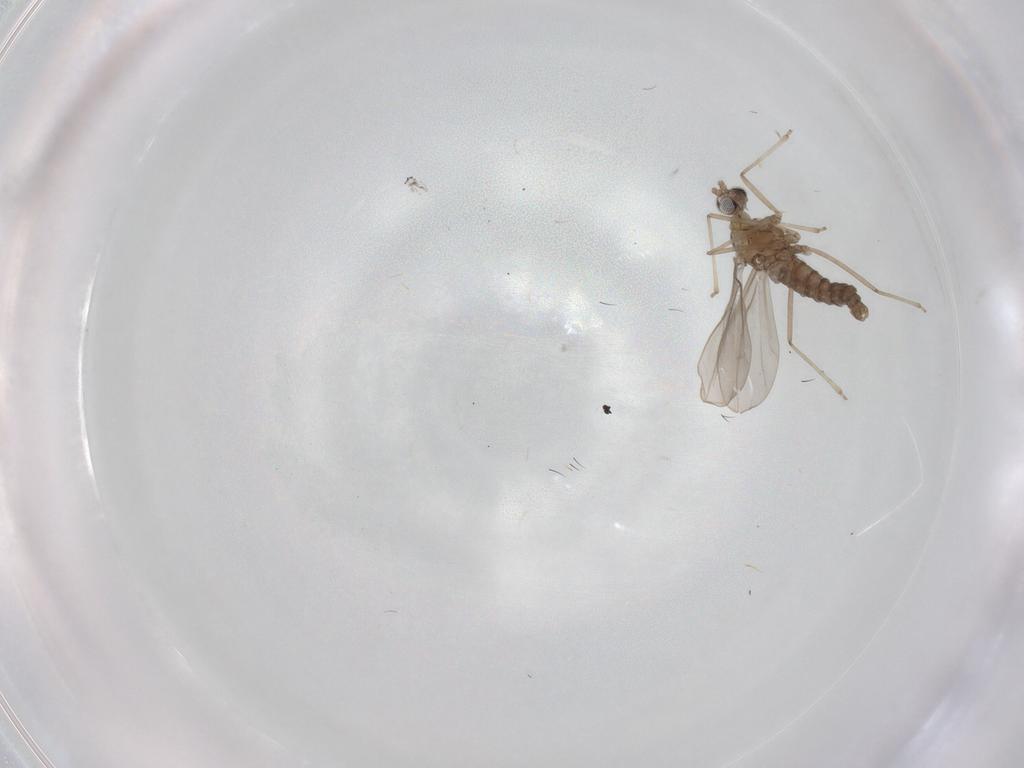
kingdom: Animalia
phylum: Arthropoda
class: Insecta
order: Diptera
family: Cecidomyiidae
